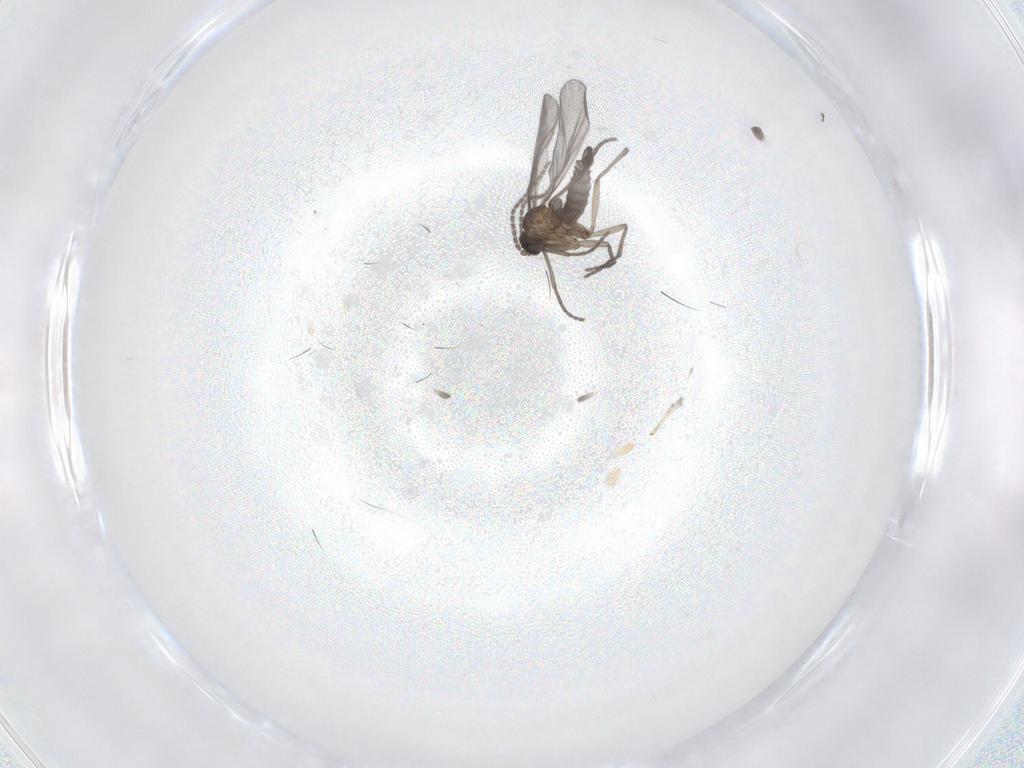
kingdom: Animalia
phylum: Arthropoda
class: Insecta
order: Diptera
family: Sciaridae
